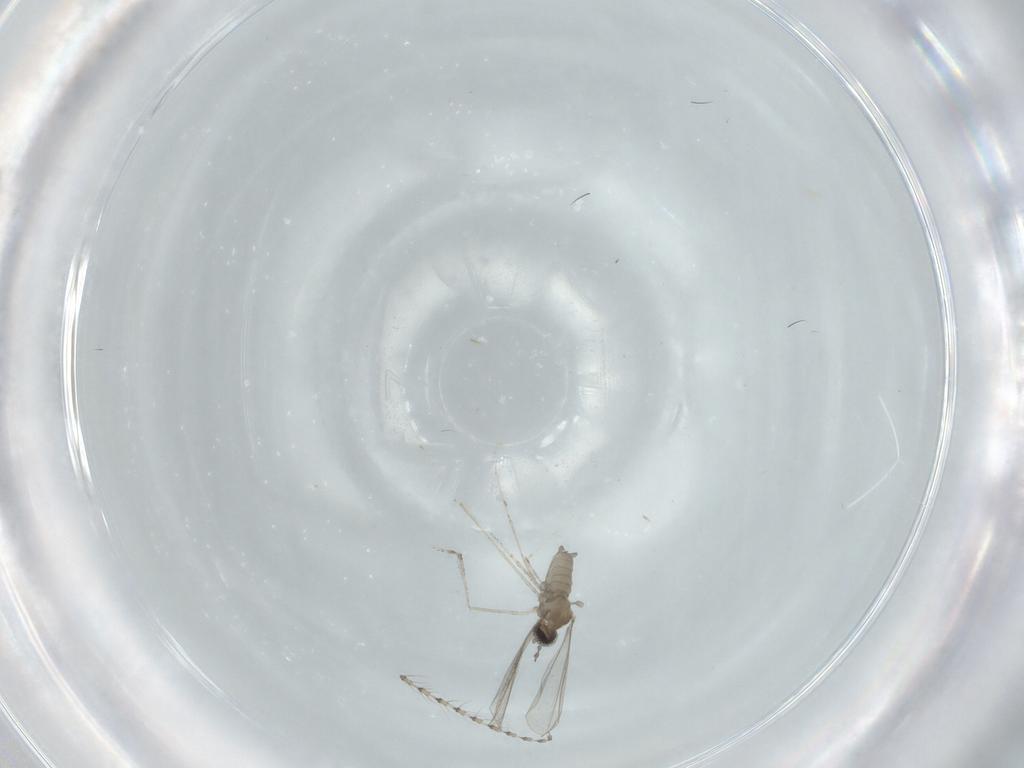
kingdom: Animalia
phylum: Arthropoda
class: Insecta
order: Diptera
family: Cecidomyiidae
